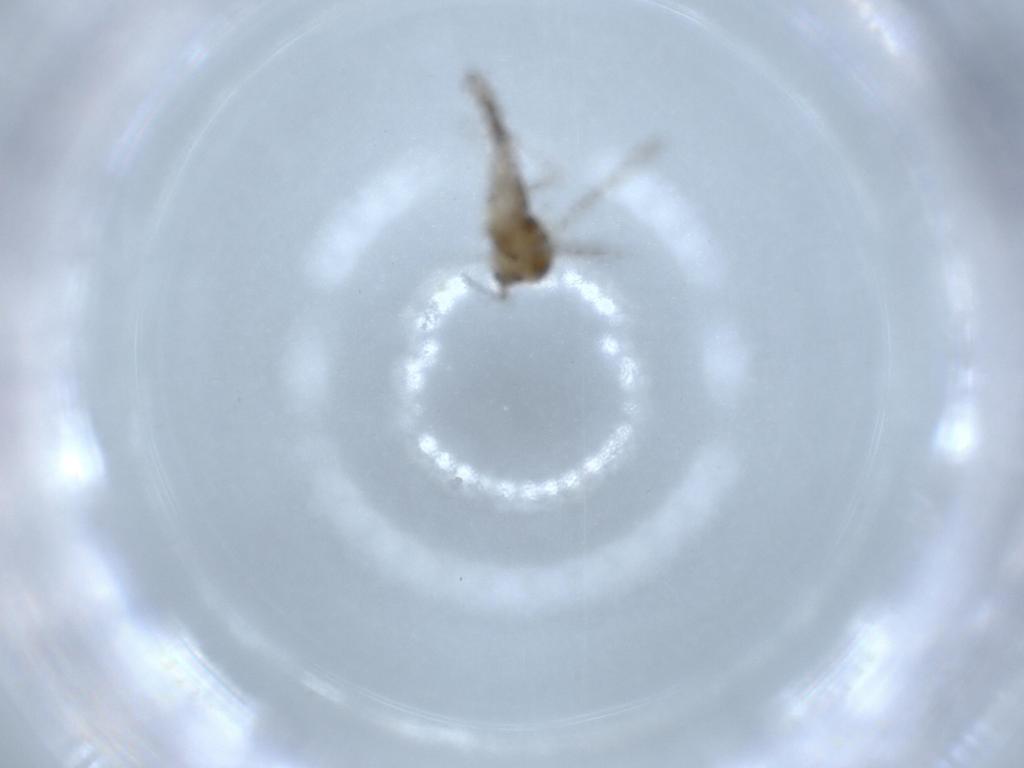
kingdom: Animalia
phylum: Arthropoda
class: Insecta
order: Diptera
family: Chironomidae
